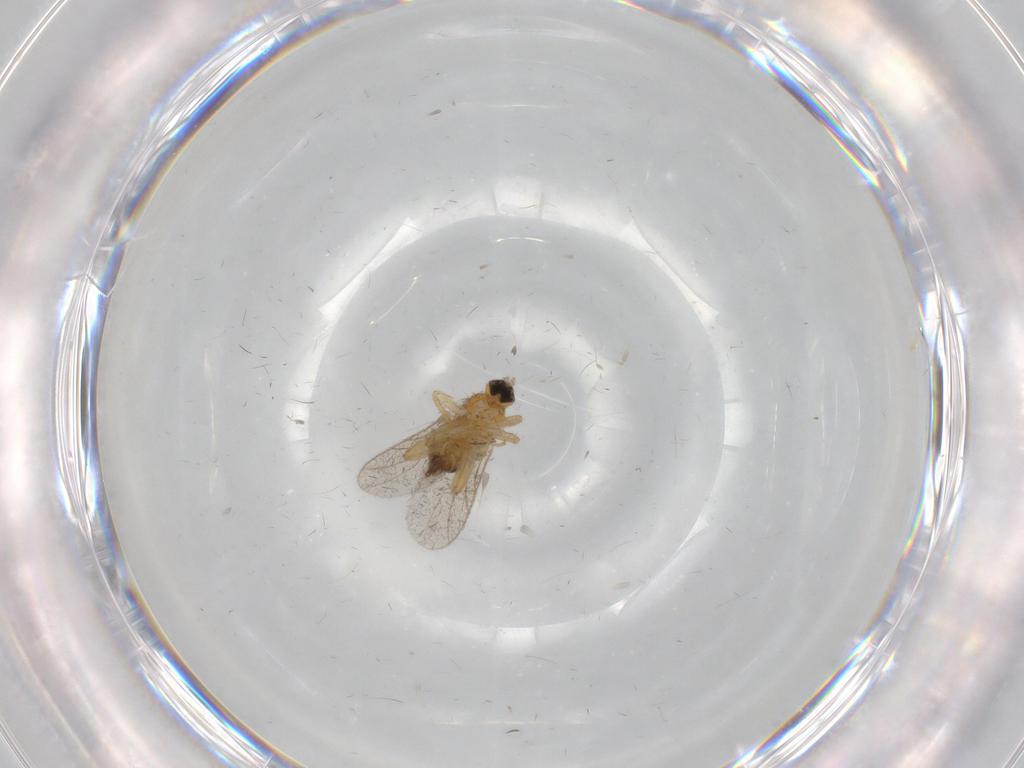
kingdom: Animalia
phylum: Arthropoda
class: Insecta
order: Diptera
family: Chironomidae
